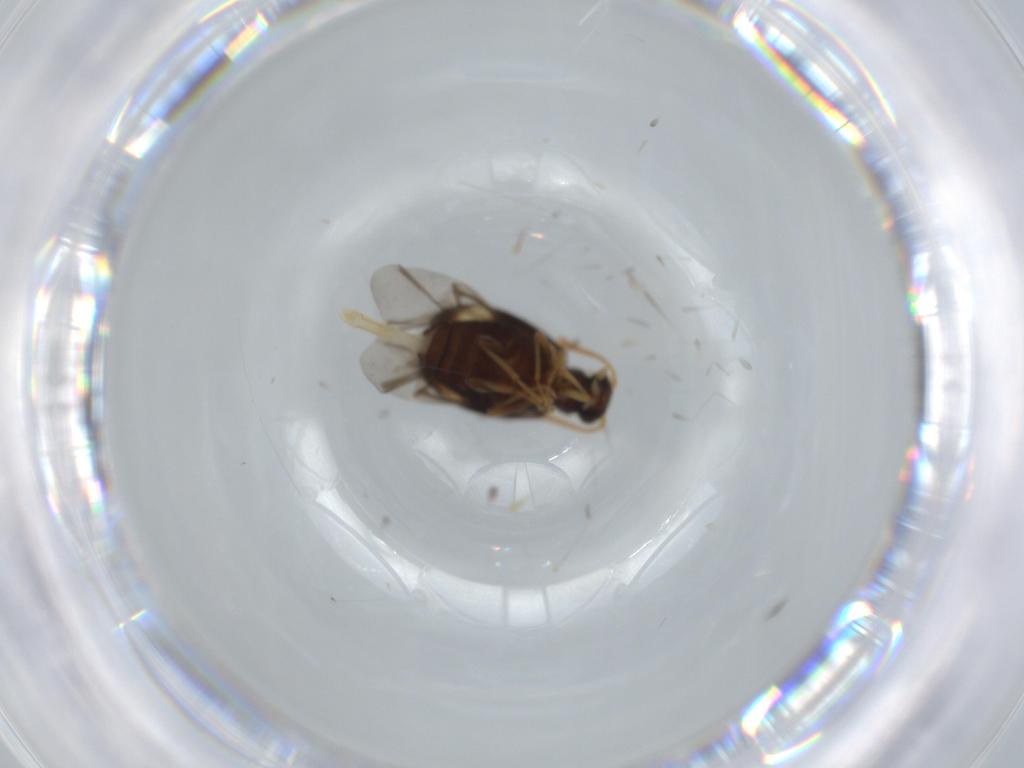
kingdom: Animalia
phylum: Arthropoda
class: Insecta
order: Coleoptera
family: Aderidae
